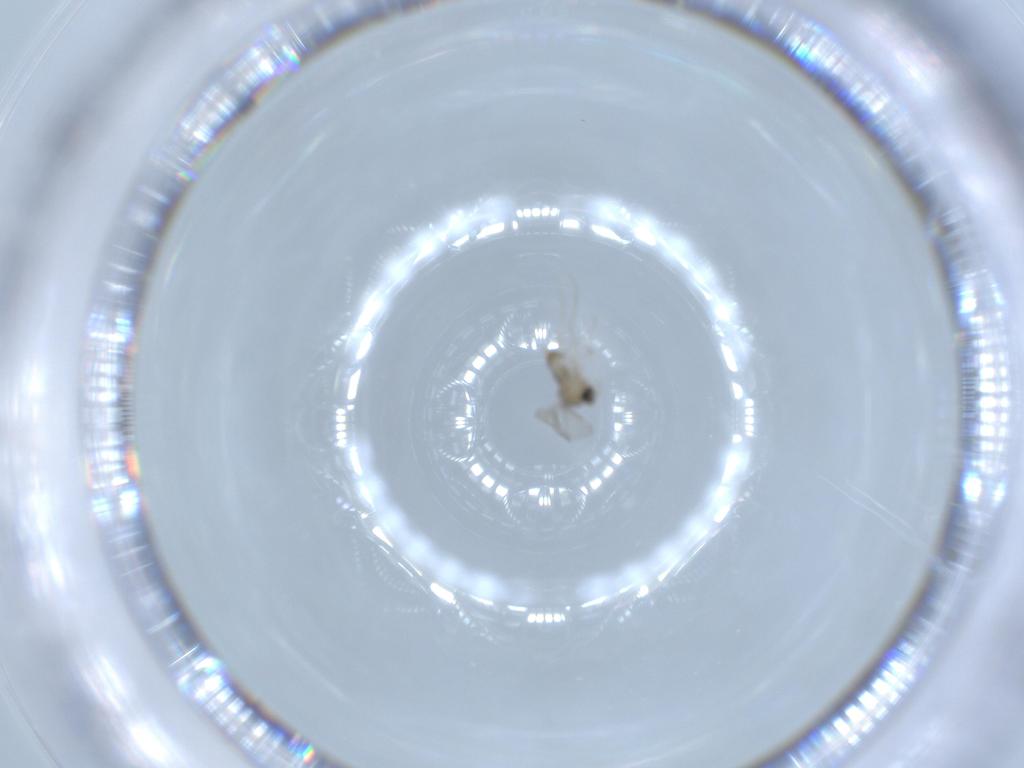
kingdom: Animalia
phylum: Arthropoda
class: Insecta
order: Diptera
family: Cecidomyiidae
